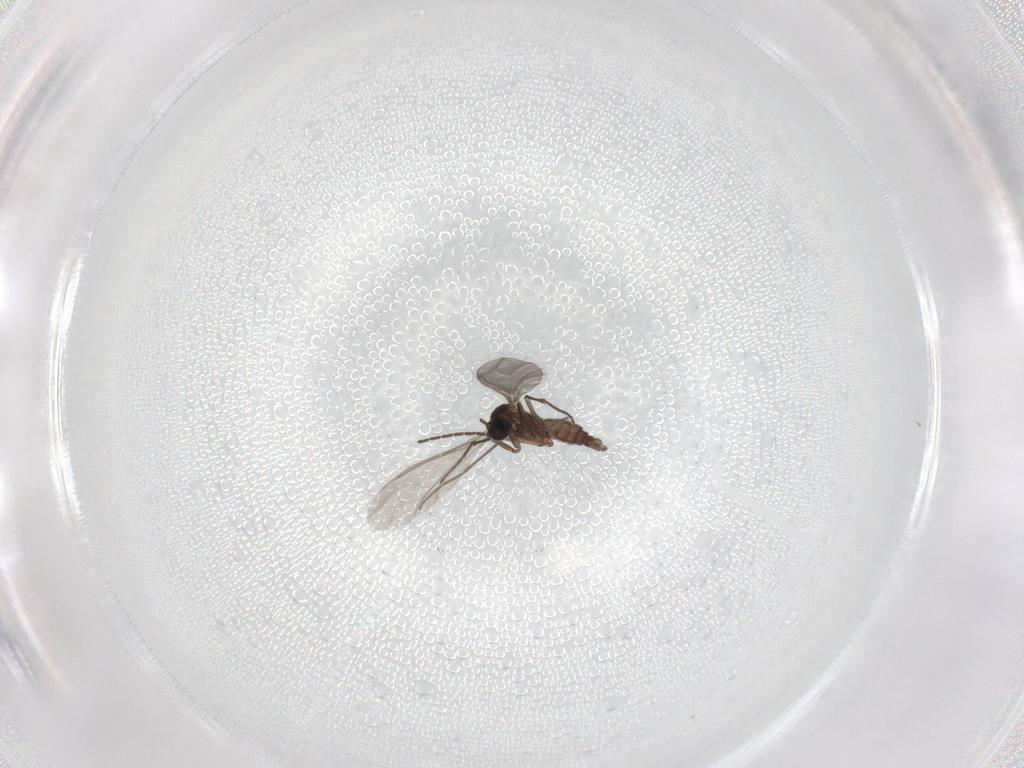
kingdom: Animalia
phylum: Arthropoda
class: Insecta
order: Diptera
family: Sciaridae
